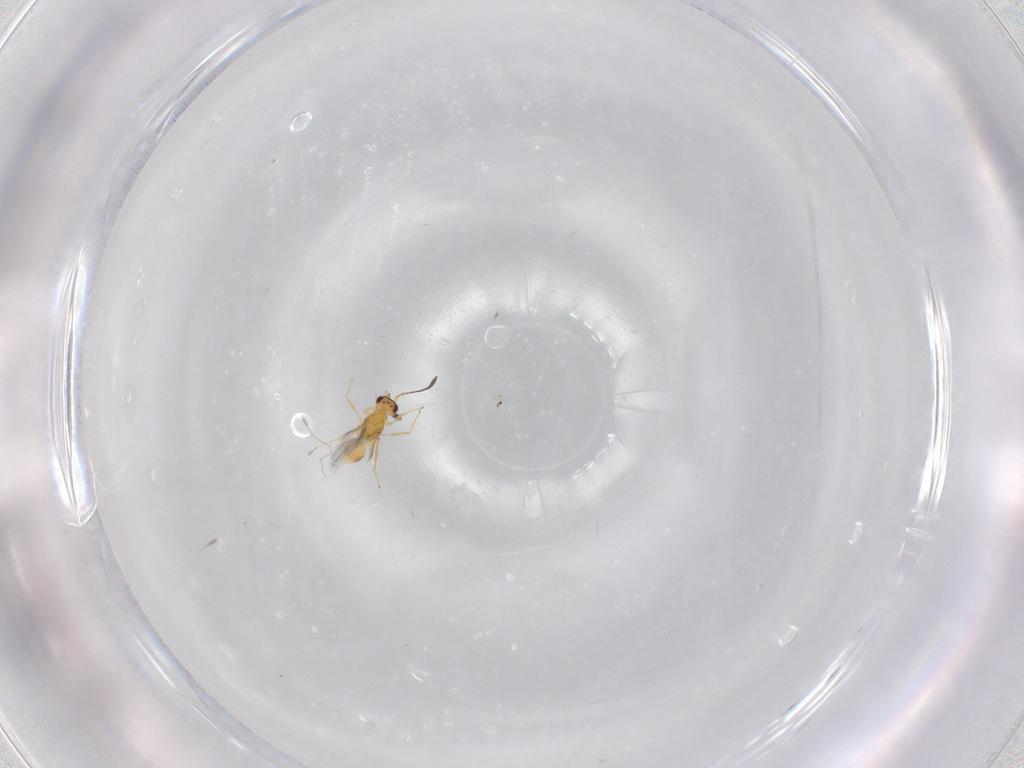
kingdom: Animalia
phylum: Arthropoda
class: Insecta
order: Hymenoptera
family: Mymaridae
